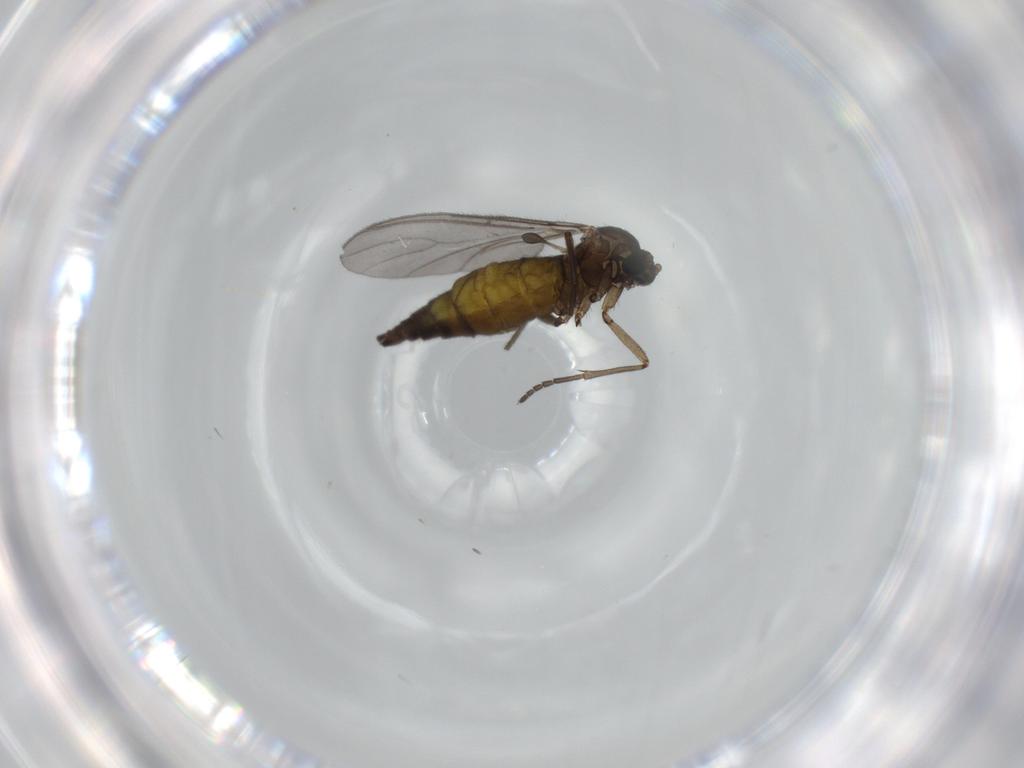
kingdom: Animalia
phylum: Arthropoda
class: Insecta
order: Diptera
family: Sciaridae
